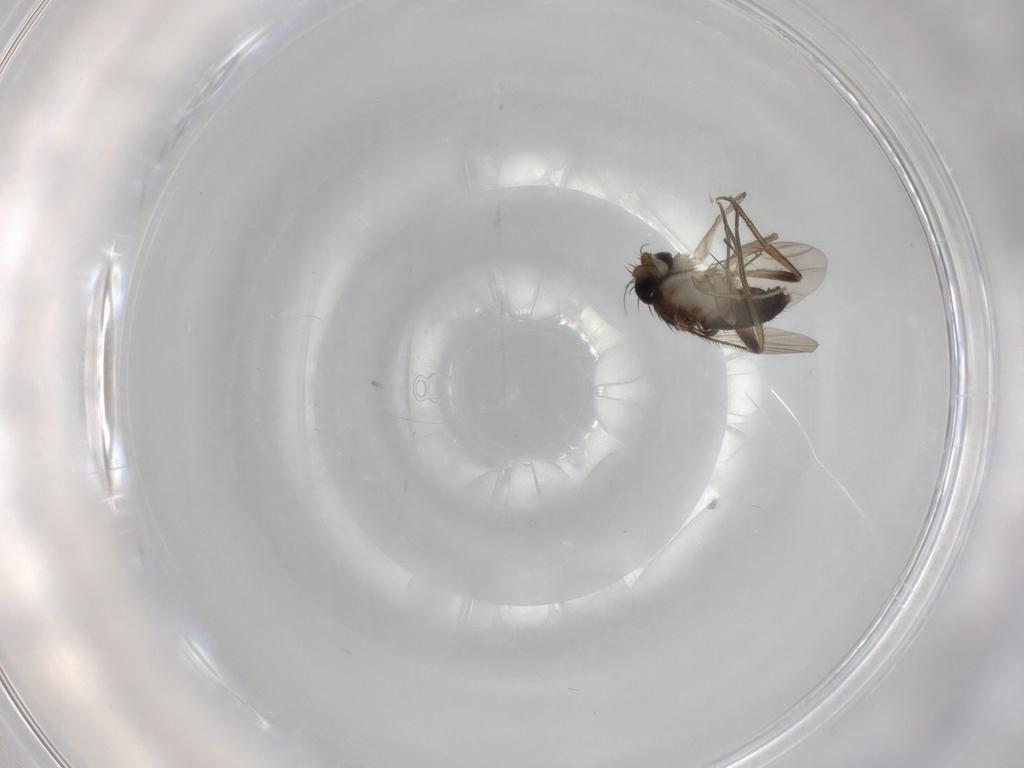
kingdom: Animalia
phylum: Arthropoda
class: Insecta
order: Diptera
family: Phoridae
